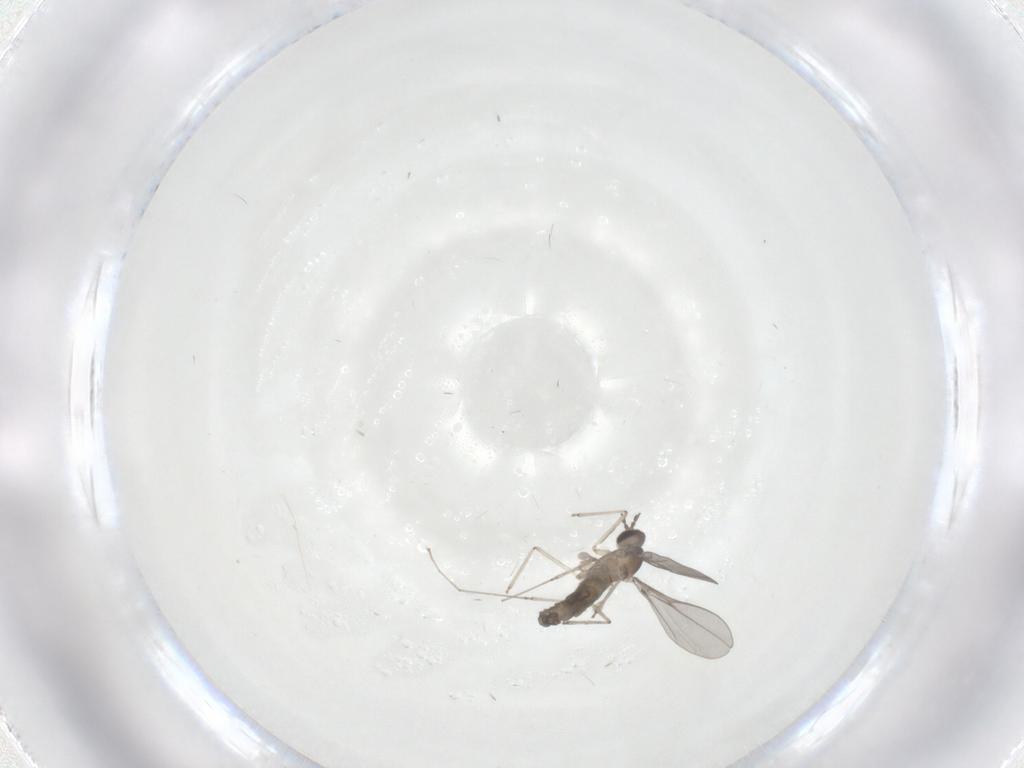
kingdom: Animalia
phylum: Arthropoda
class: Insecta
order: Diptera
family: Cecidomyiidae
